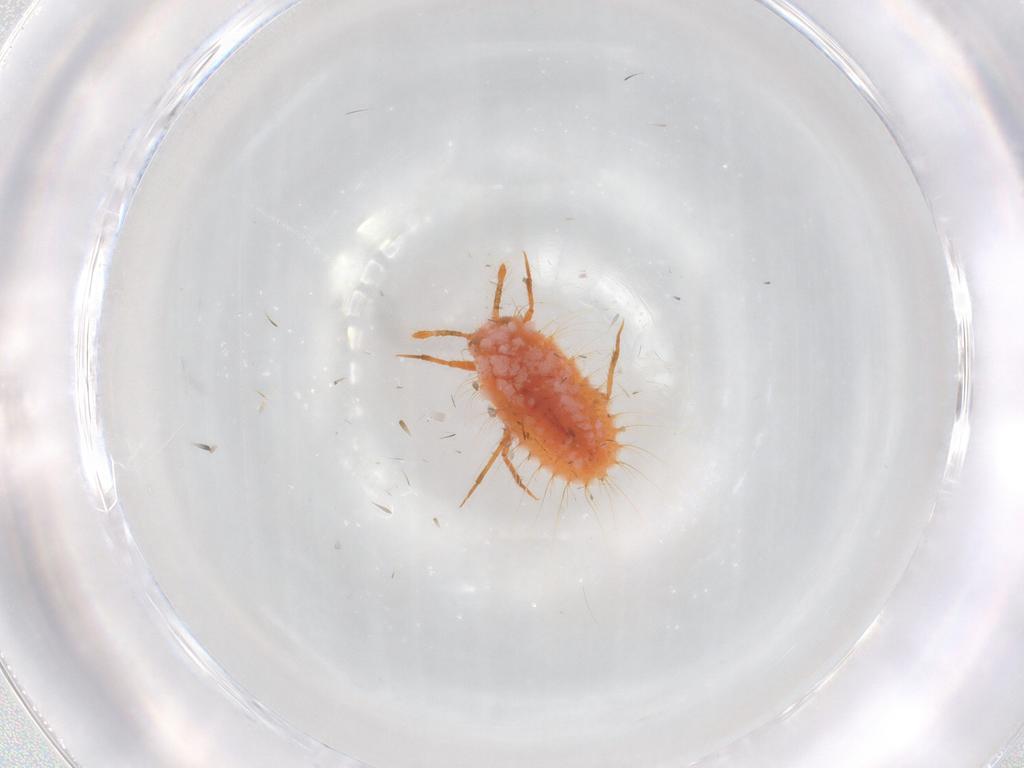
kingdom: Animalia
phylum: Arthropoda
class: Insecta
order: Hemiptera
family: Coccoidea_incertae_sedis
